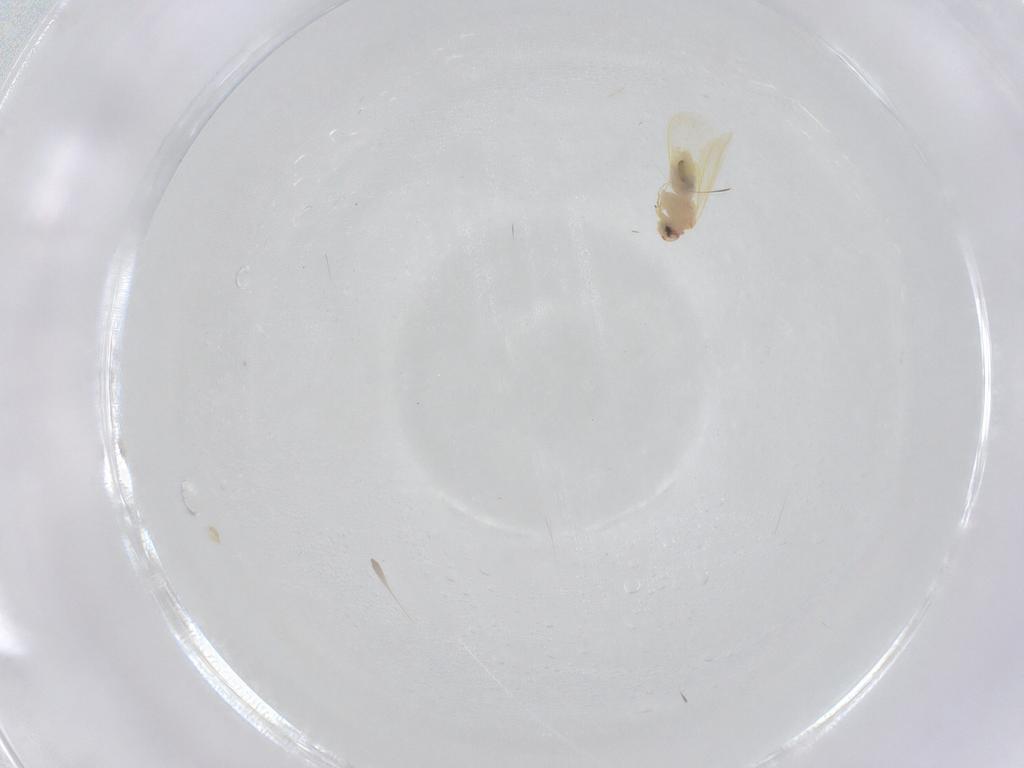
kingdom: Animalia
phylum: Arthropoda
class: Insecta
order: Hemiptera
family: Aleyrodidae
